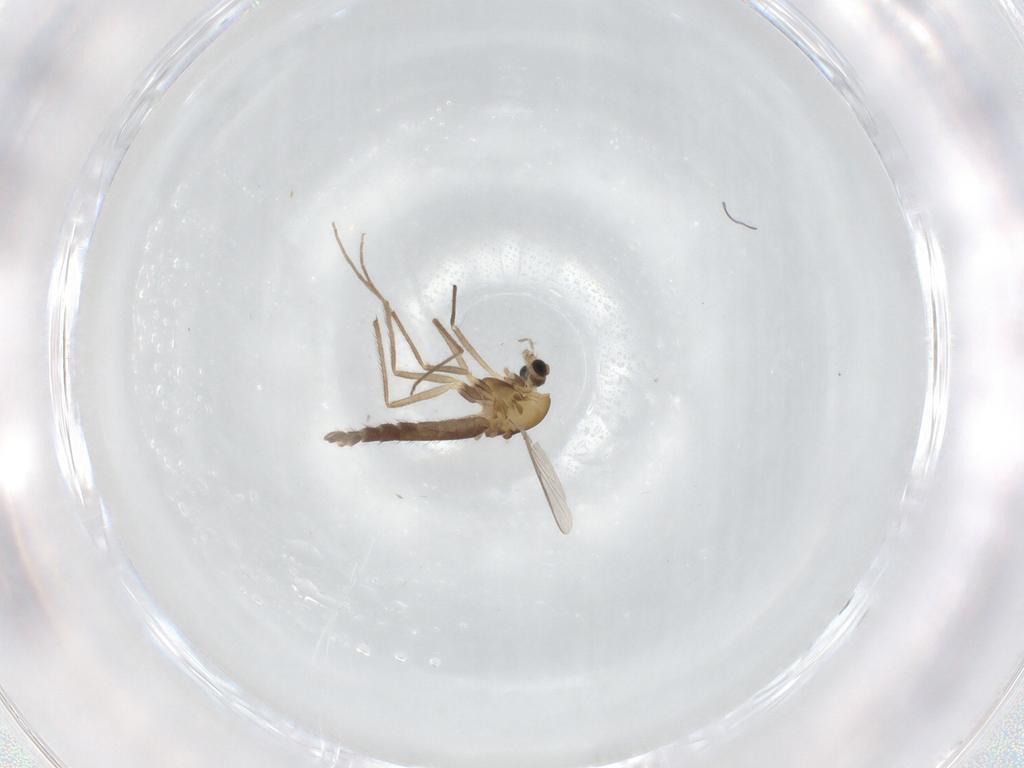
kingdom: Animalia
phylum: Arthropoda
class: Insecta
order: Diptera
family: Chironomidae
